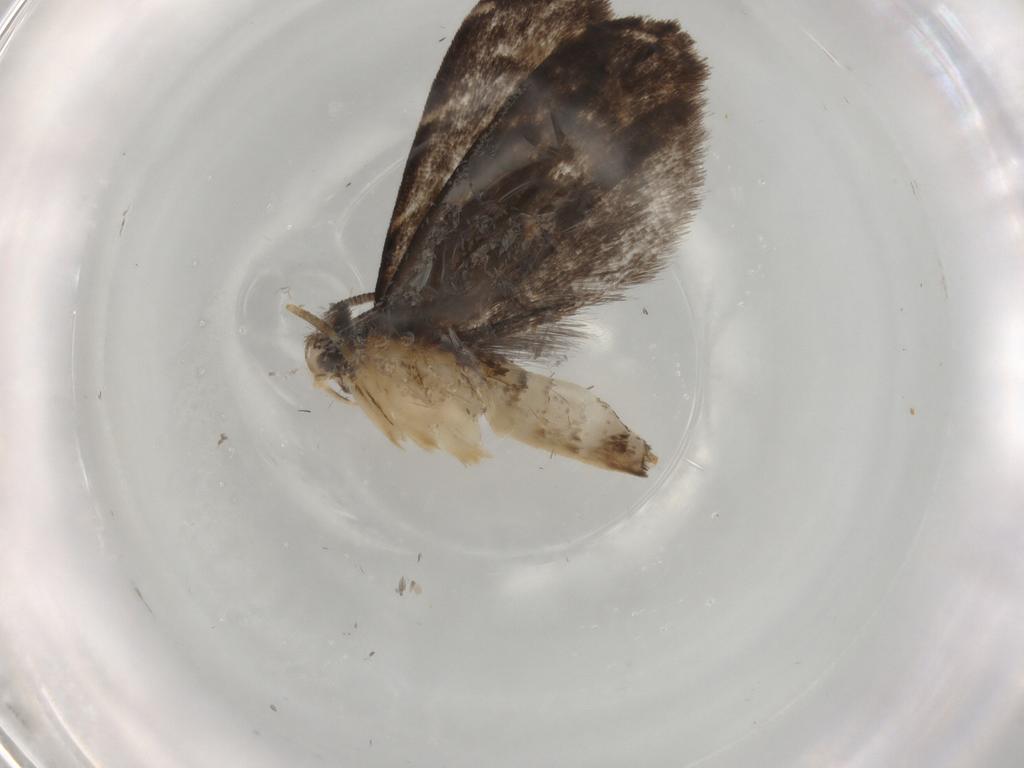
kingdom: Animalia
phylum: Arthropoda
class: Insecta
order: Lepidoptera
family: Dryadaulidae
